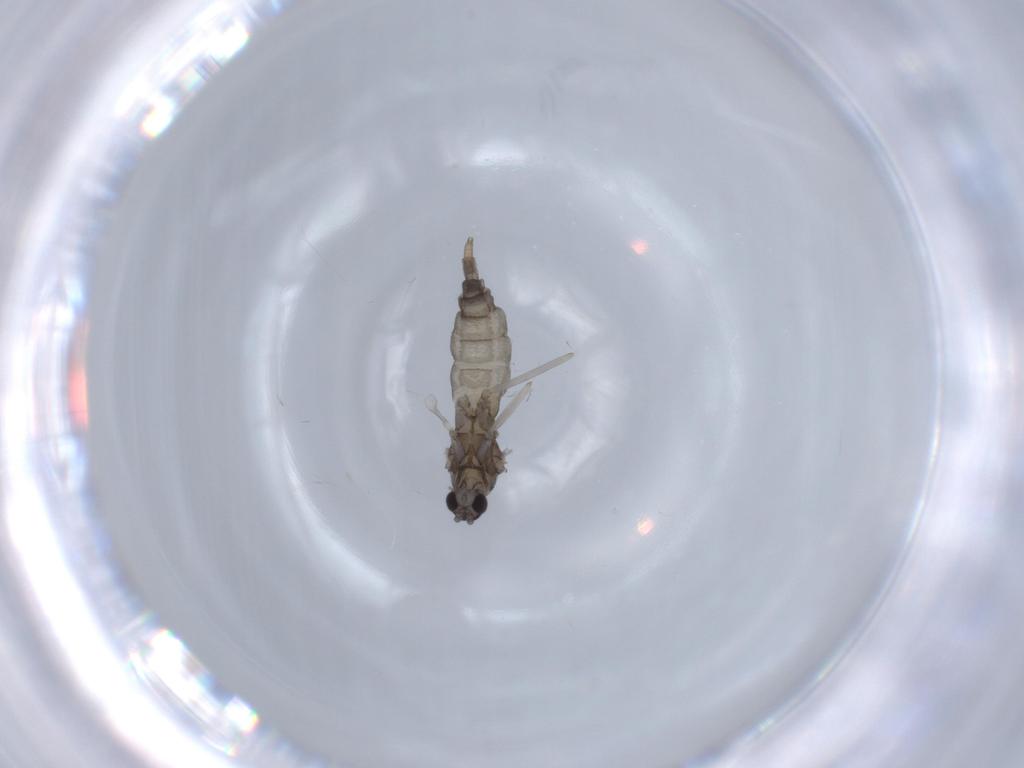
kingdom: Animalia
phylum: Arthropoda
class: Insecta
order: Diptera
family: Cecidomyiidae
